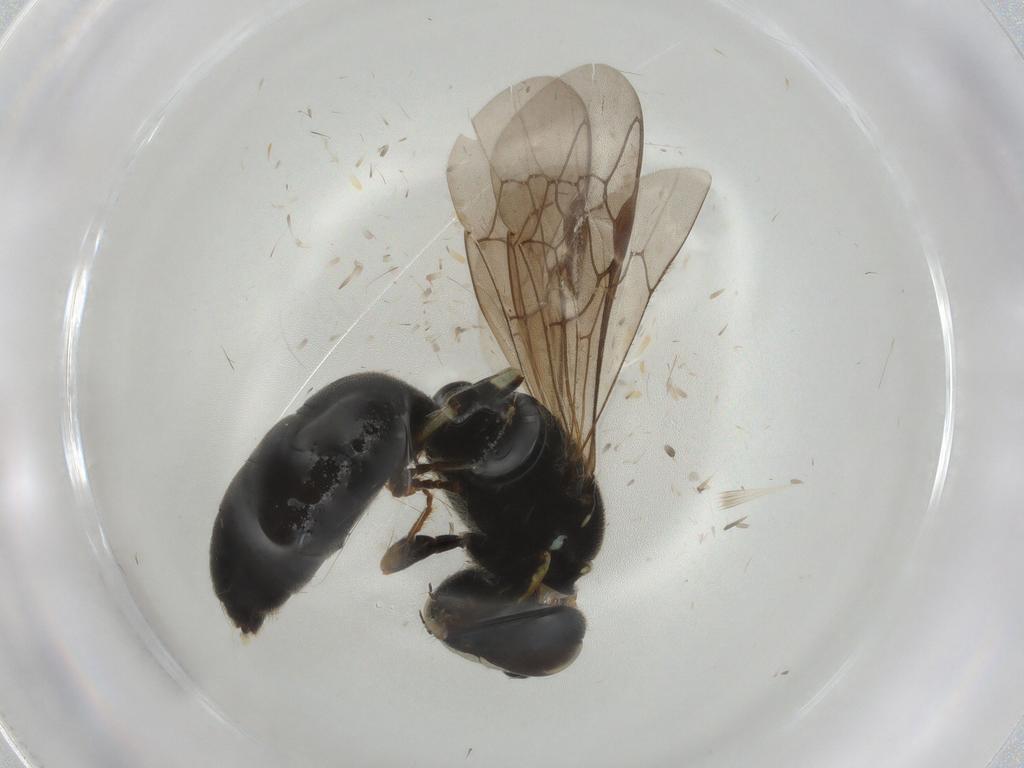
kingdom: Animalia
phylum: Arthropoda
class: Insecta
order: Hymenoptera
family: Colletidae
